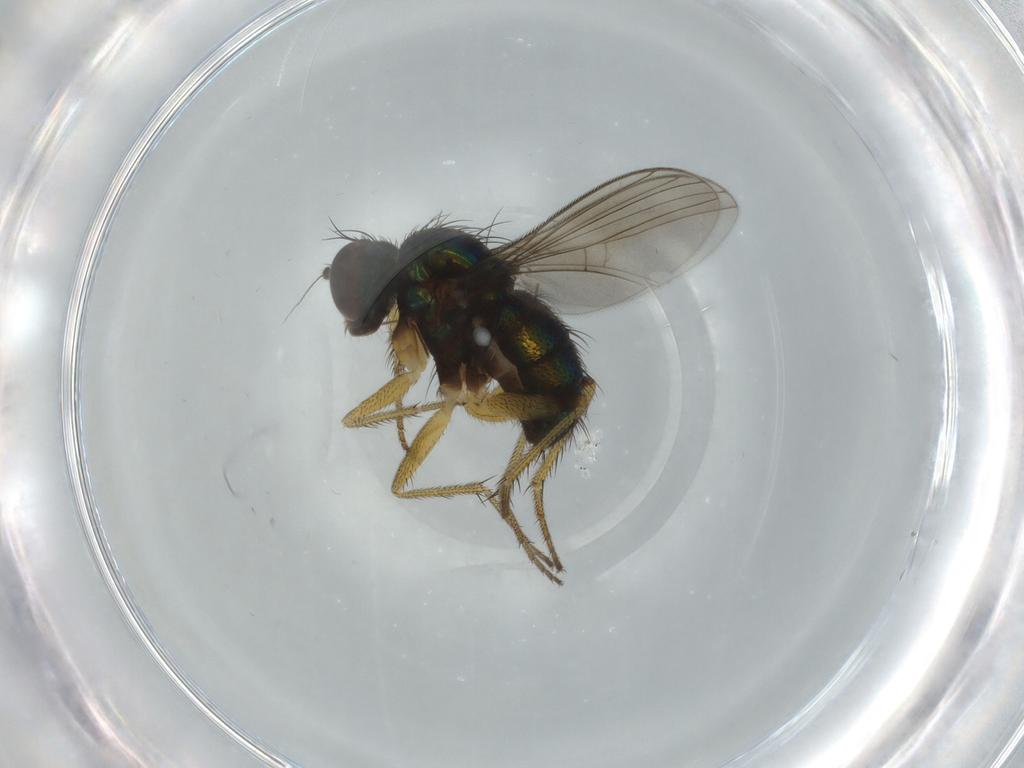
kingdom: Animalia
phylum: Arthropoda
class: Insecta
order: Diptera
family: Dolichopodidae
